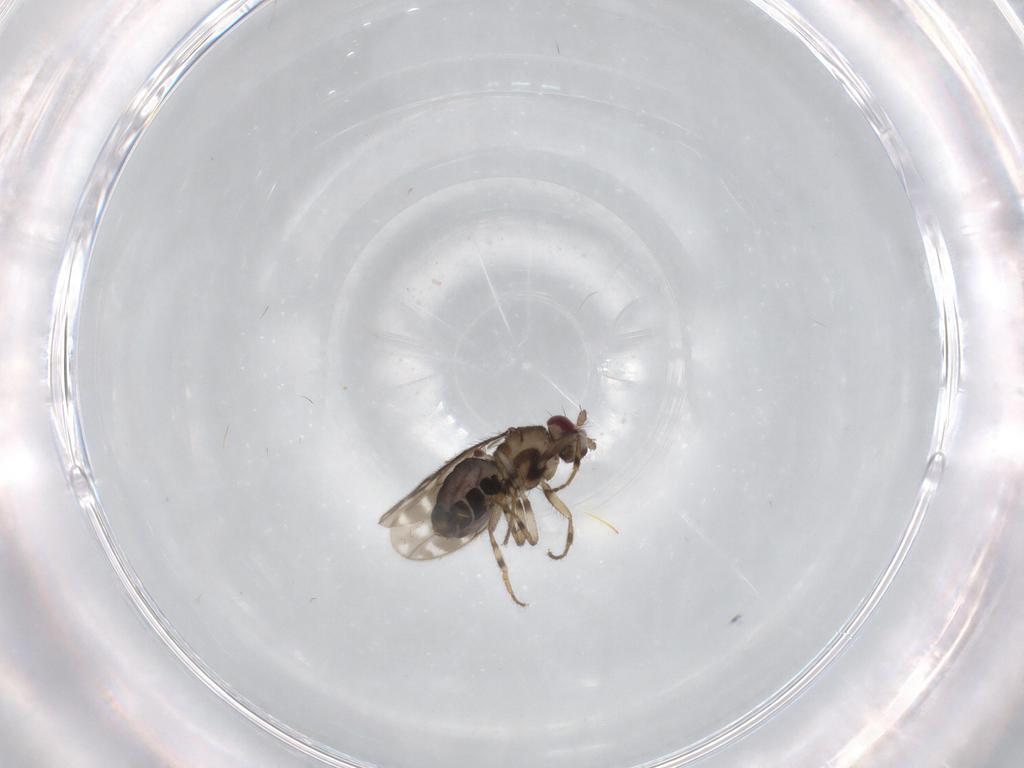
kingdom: Animalia
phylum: Arthropoda
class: Insecta
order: Diptera
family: Sphaeroceridae
